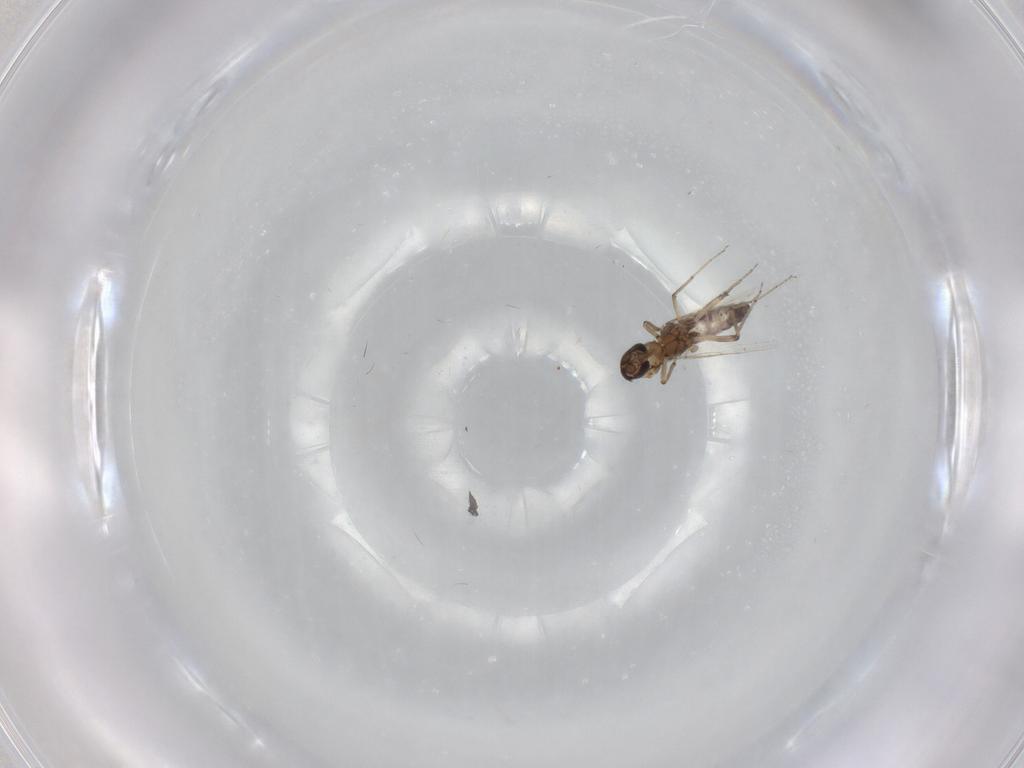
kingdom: Animalia
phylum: Arthropoda
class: Insecta
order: Diptera
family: Ceratopogonidae
